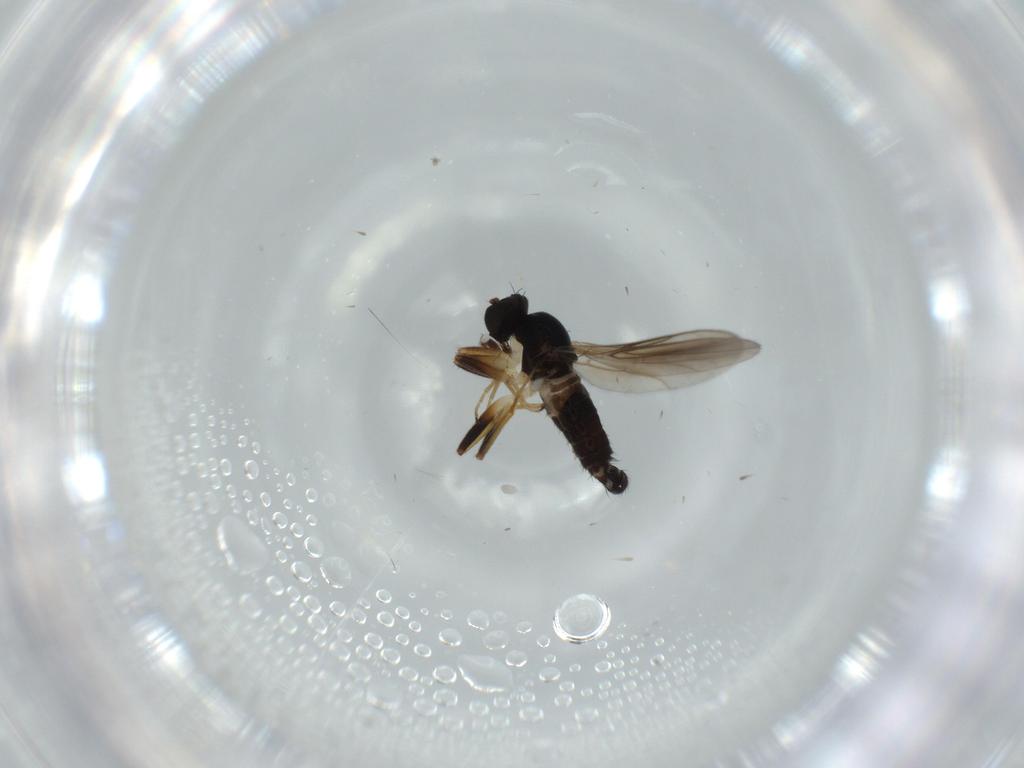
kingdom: Animalia
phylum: Arthropoda
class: Insecta
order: Diptera
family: Hybotidae
